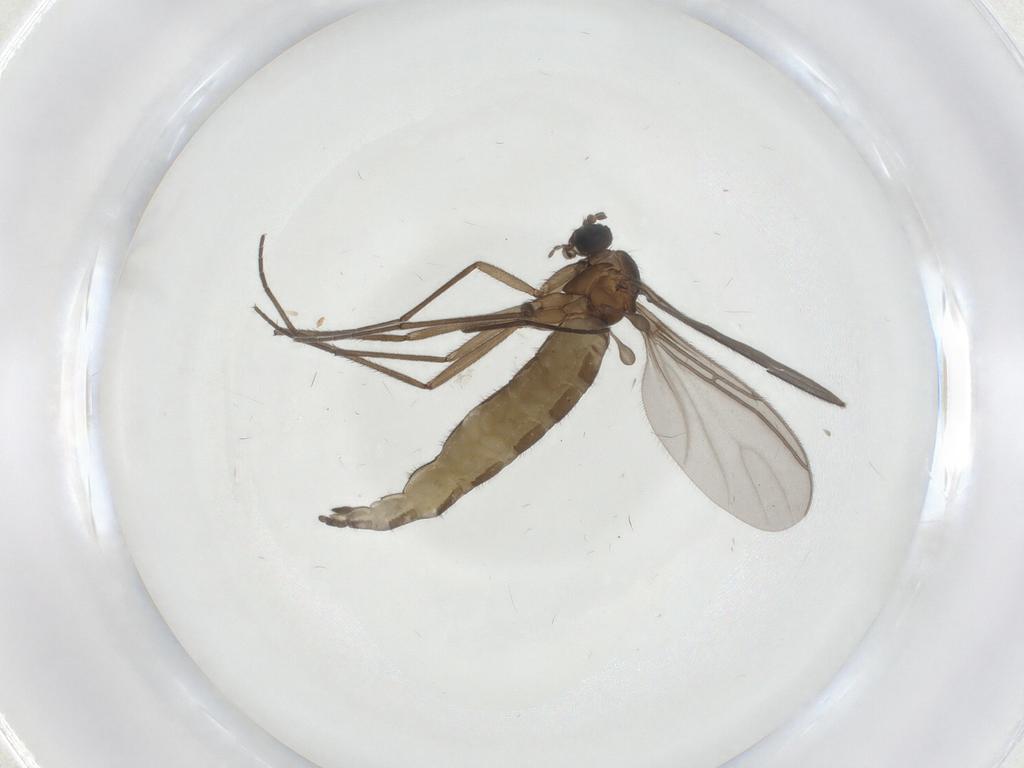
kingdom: Animalia
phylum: Arthropoda
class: Insecta
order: Diptera
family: Sciaridae
